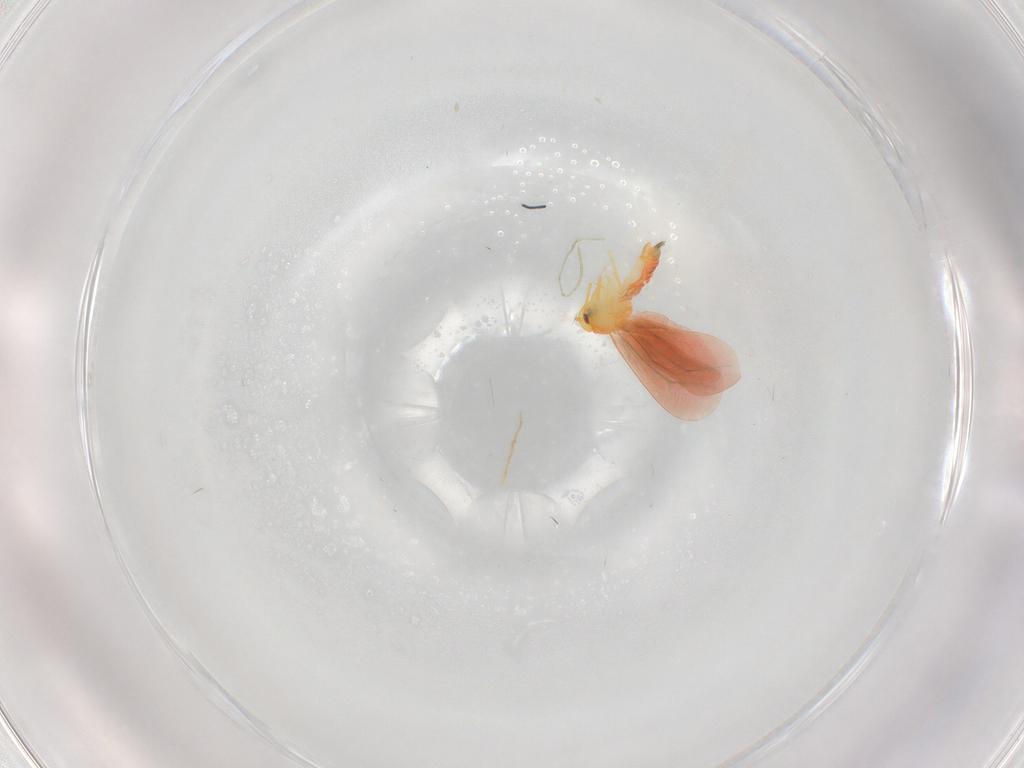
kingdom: Animalia
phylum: Arthropoda
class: Insecta
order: Hemiptera
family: Aleyrodidae
